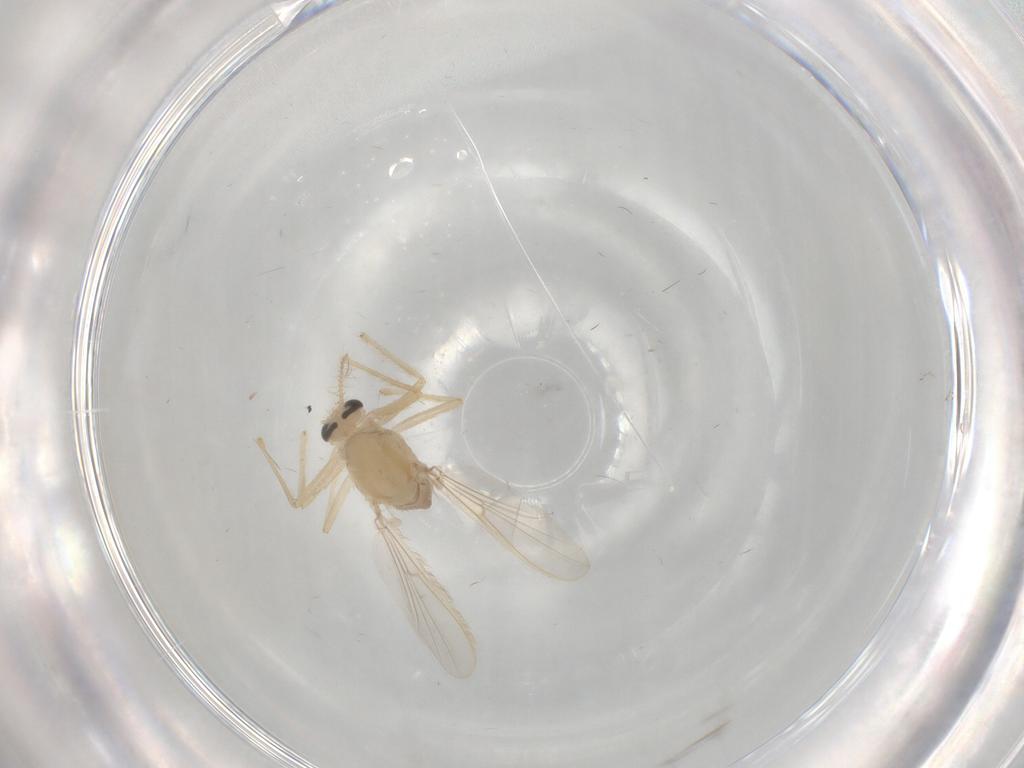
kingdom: Animalia
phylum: Arthropoda
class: Insecta
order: Diptera
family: Chironomidae
